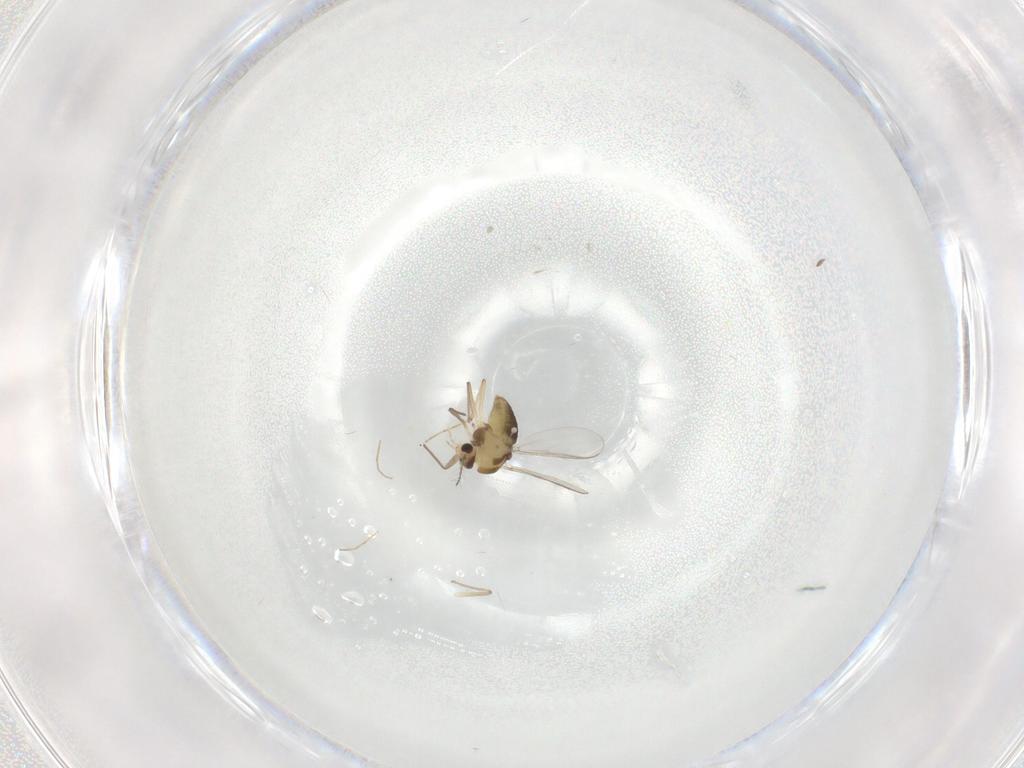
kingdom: Animalia
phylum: Arthropoda
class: Insecta
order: Diptera
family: Chironomidae
